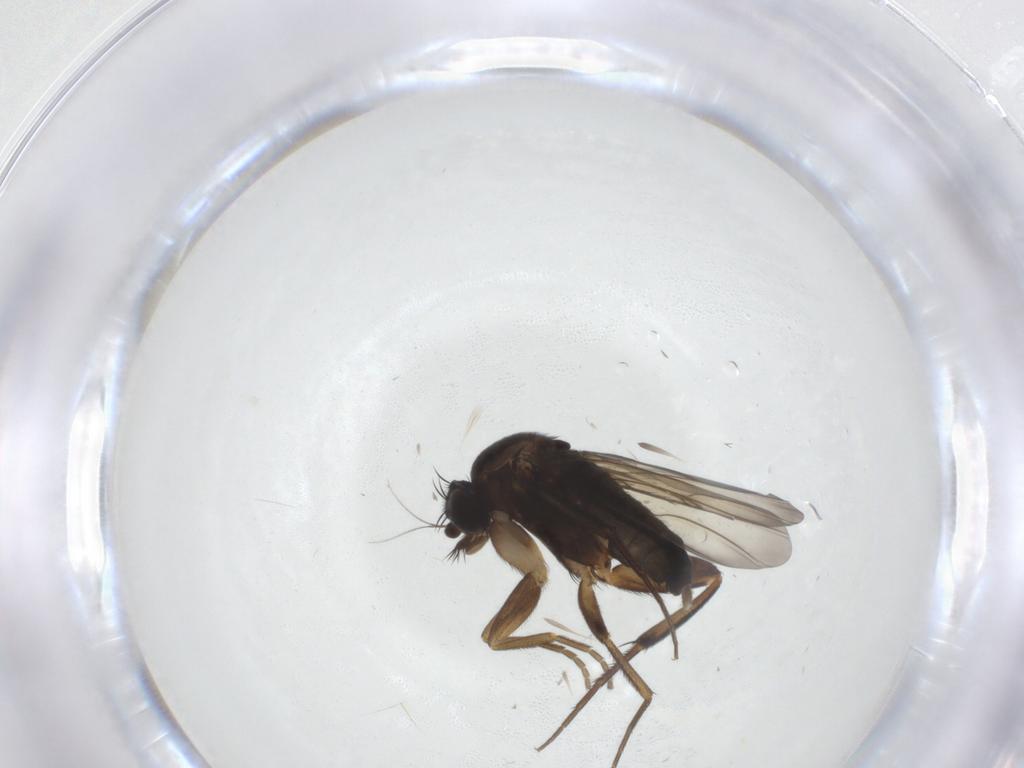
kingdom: Animalia
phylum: Arthropoda
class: Insecta
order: Diptera
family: Phoridae
